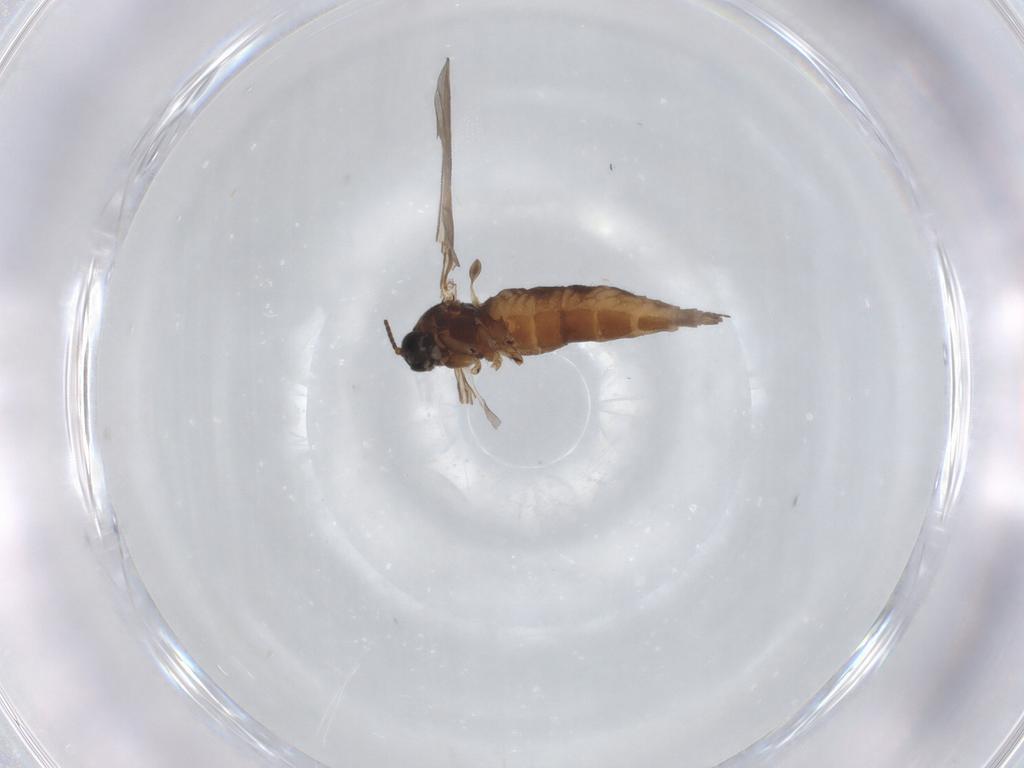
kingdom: Animalia
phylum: Arthropoda
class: Insecta
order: Diptera
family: Sciaridae
